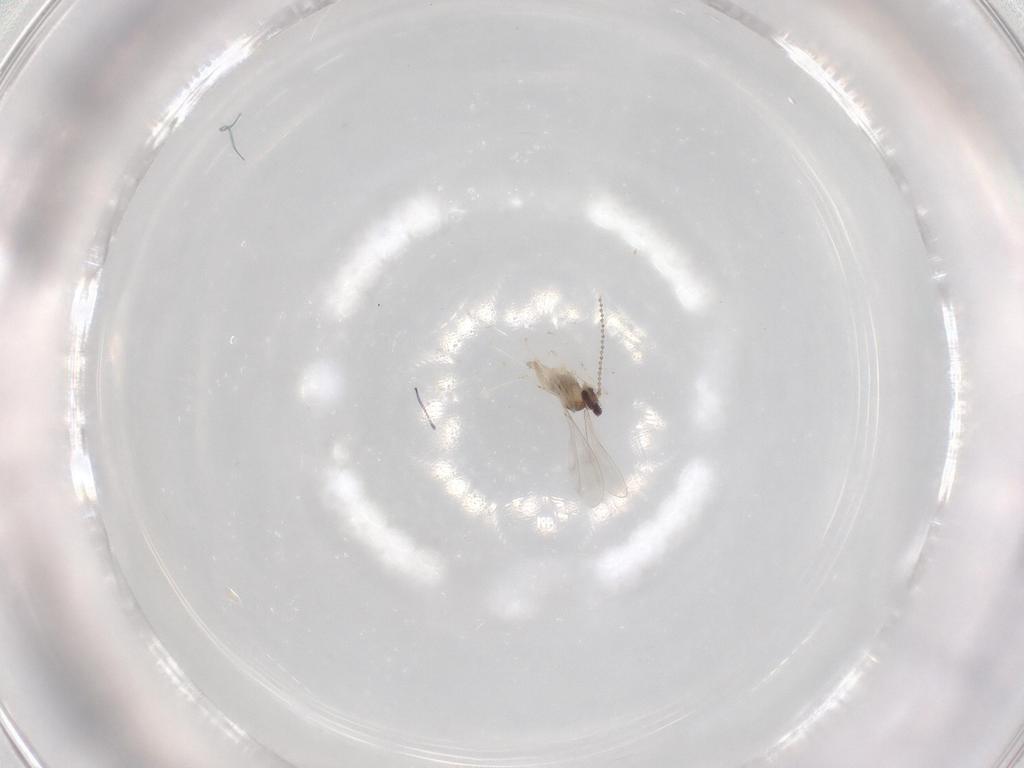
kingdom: Animalia
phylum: Arthropoda
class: Insecta
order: Diptera
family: Cecidomyiidae
